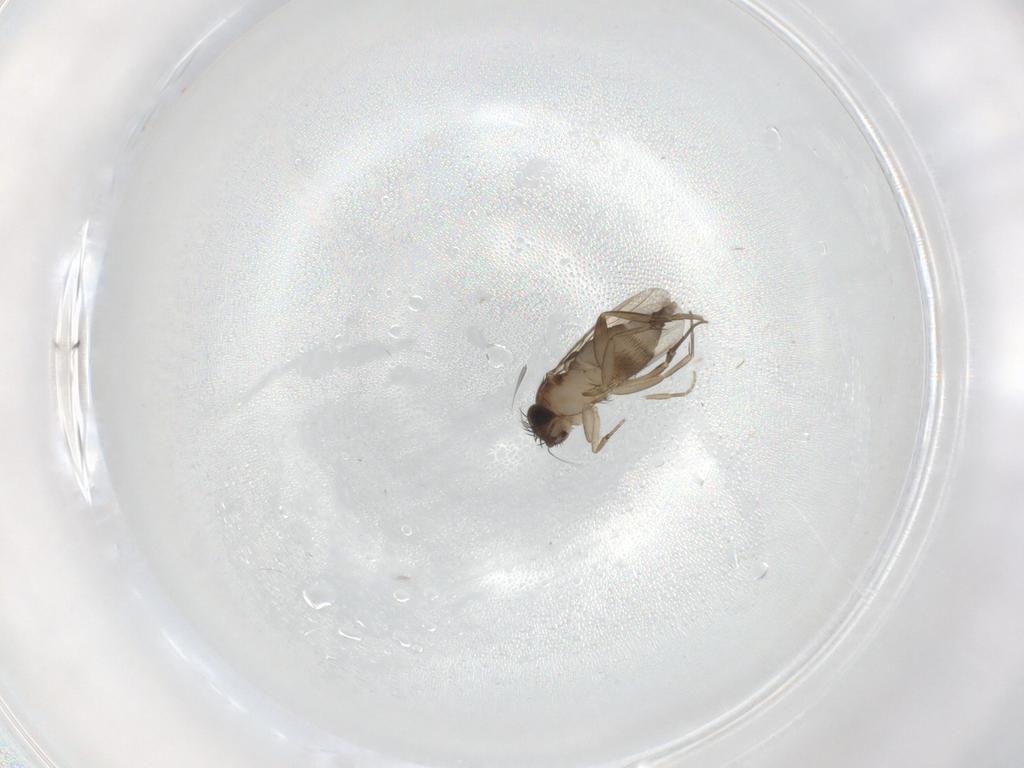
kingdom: Animalia
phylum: Arthropoda
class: Insecta
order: Diptera
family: Phoridae
